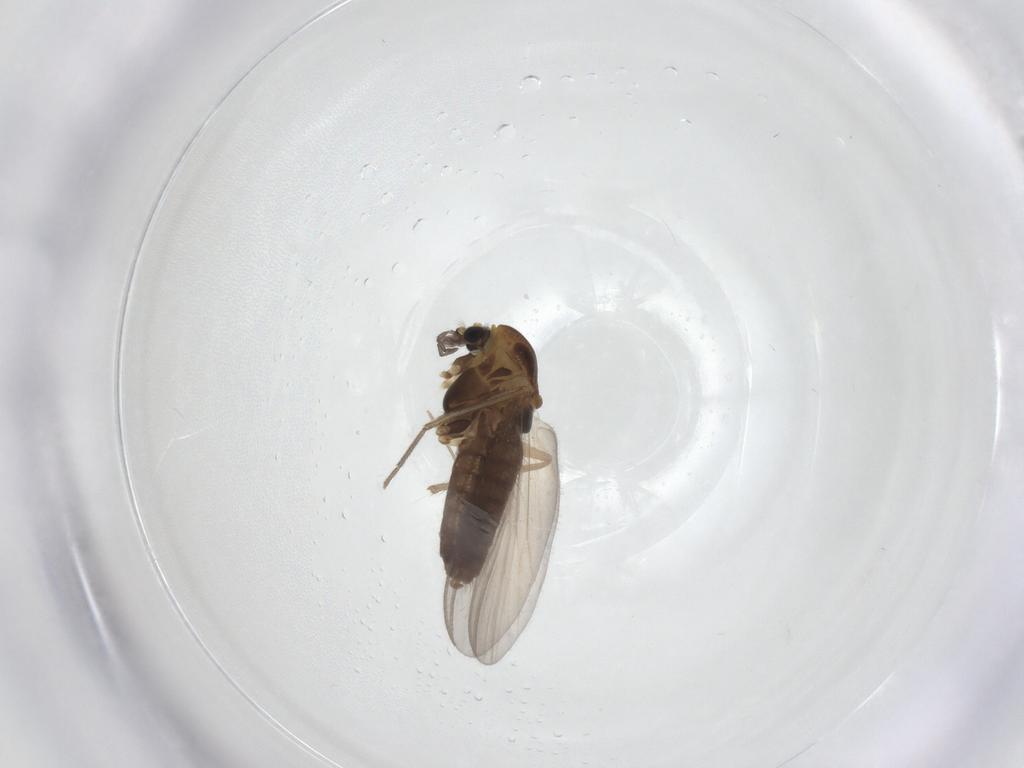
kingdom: Animalia
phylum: Arthropoda
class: Insecta
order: Diptera
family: Chironomidae
